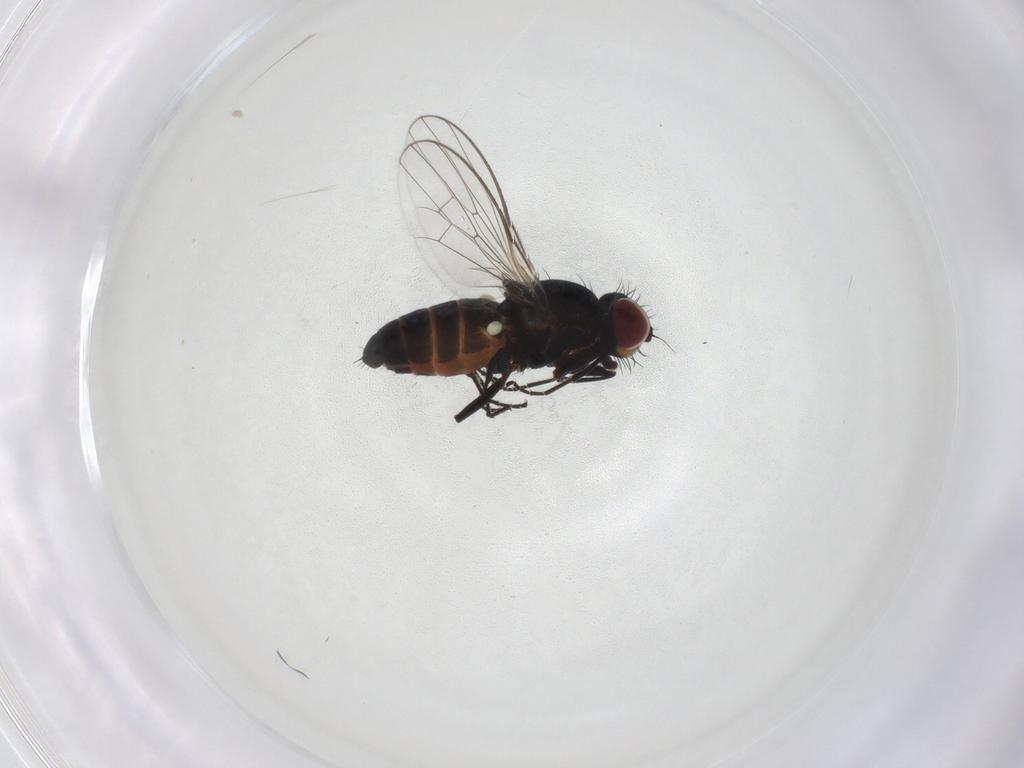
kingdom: Animalia
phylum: Arthropoda
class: Insecta
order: Diptera
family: Carnidae
